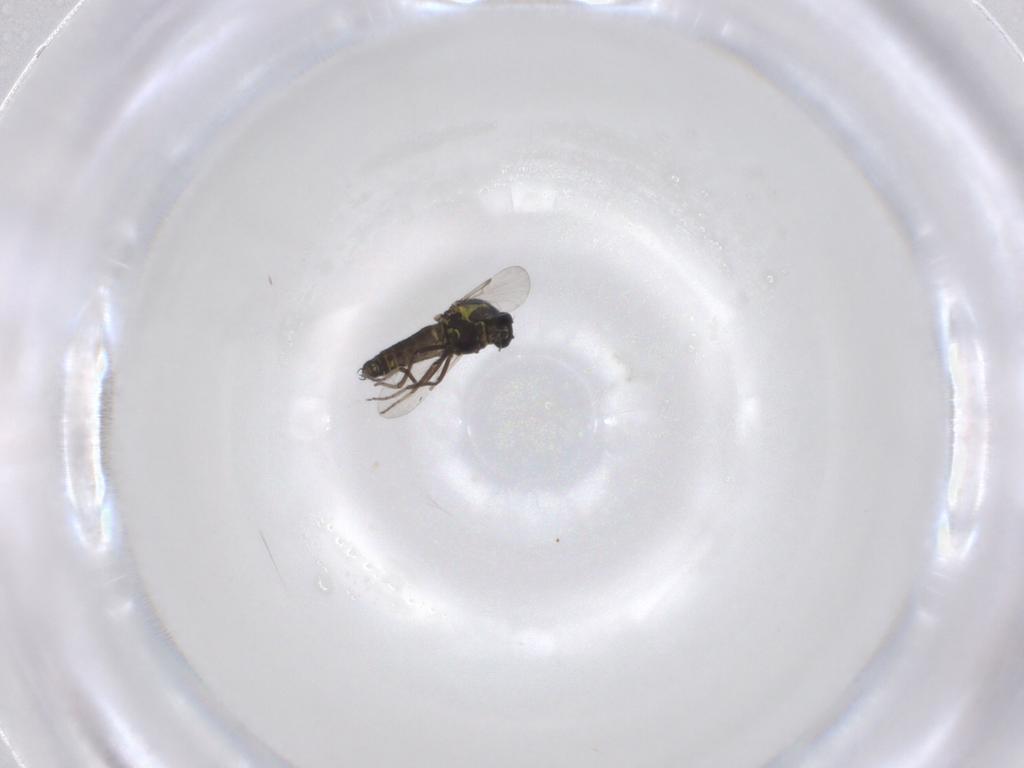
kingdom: Animalia
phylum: Arthropoda
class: Insecta
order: Diptera
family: Ceratopogonidae
